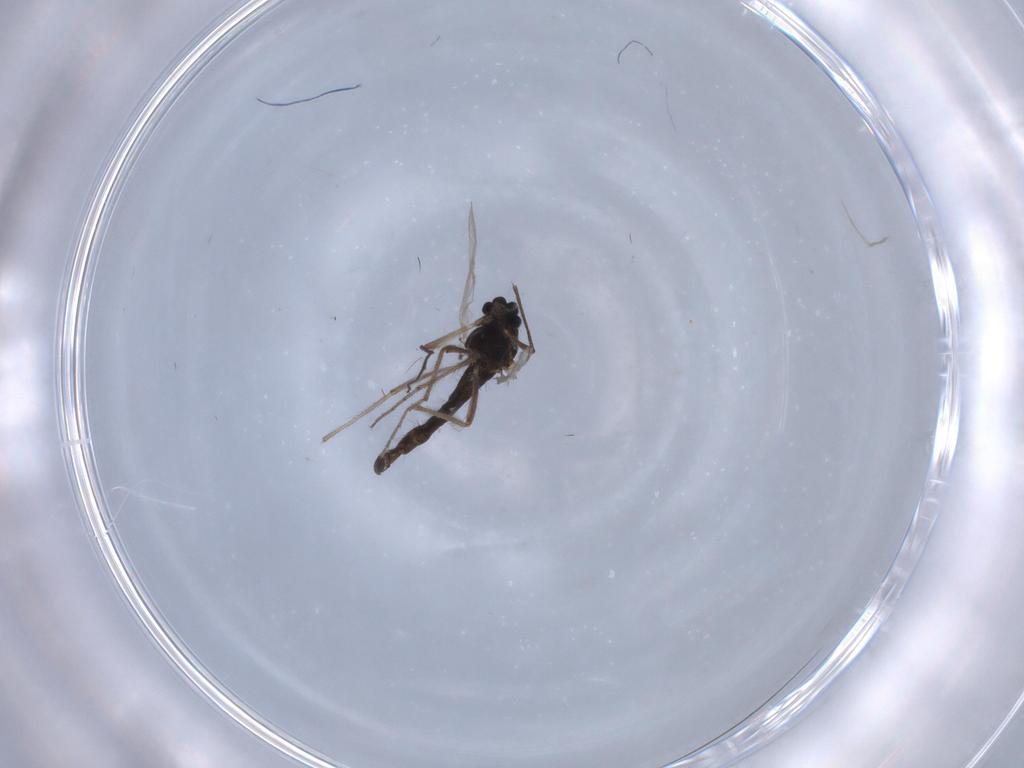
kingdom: Animalia
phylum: Arthropoda
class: Insecta
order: Diptera
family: Chironomidae
